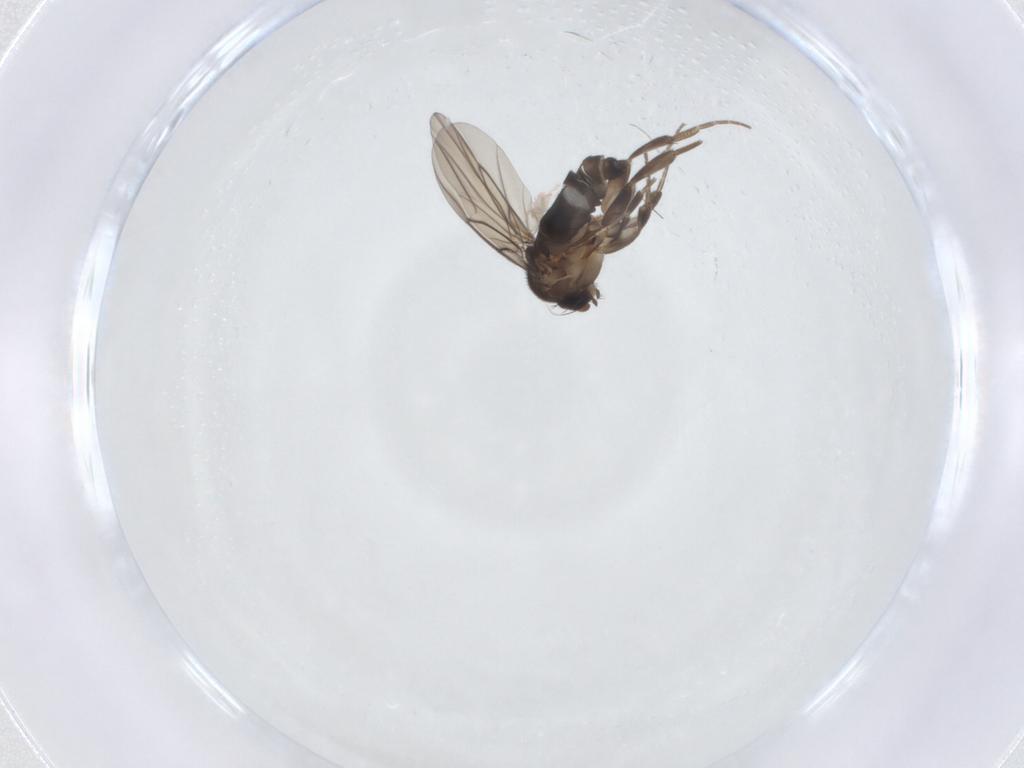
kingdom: Animalia
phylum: Arthropoda
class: Insecta
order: Diptera
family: Phoridae
